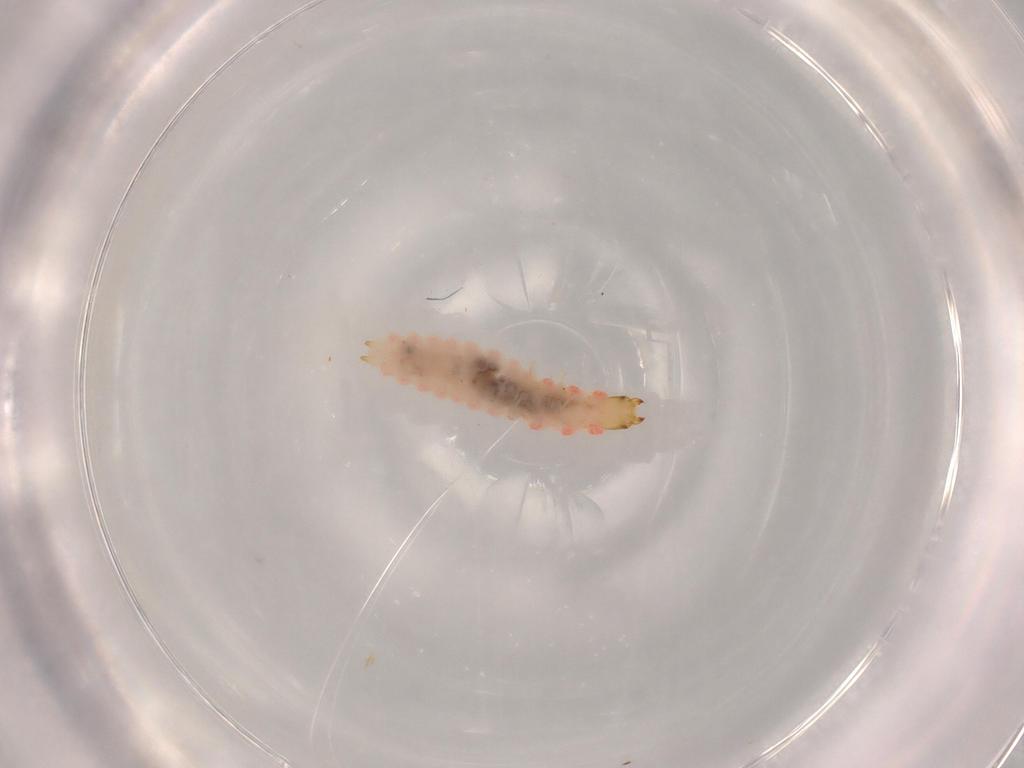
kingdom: Animalia
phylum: Arthropoda
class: Insecta
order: Coleoptera
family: Melyridae
